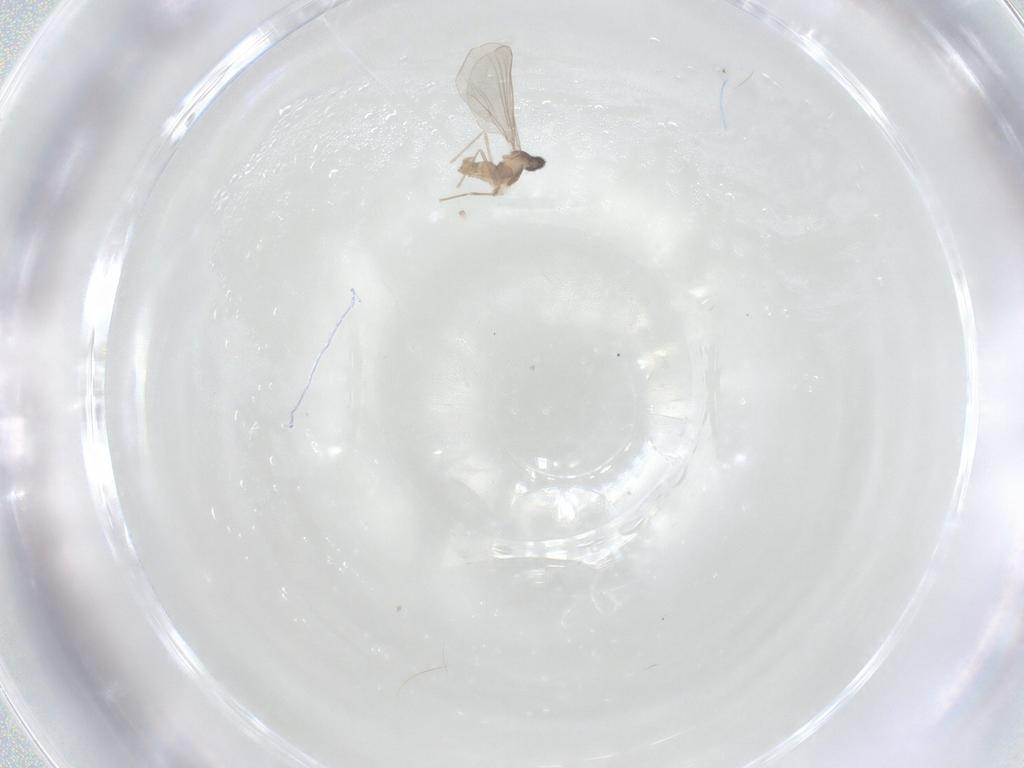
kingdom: Animalia
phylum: Arthropoda
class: Insecta
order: Diptera
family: Cecidomyiidae
